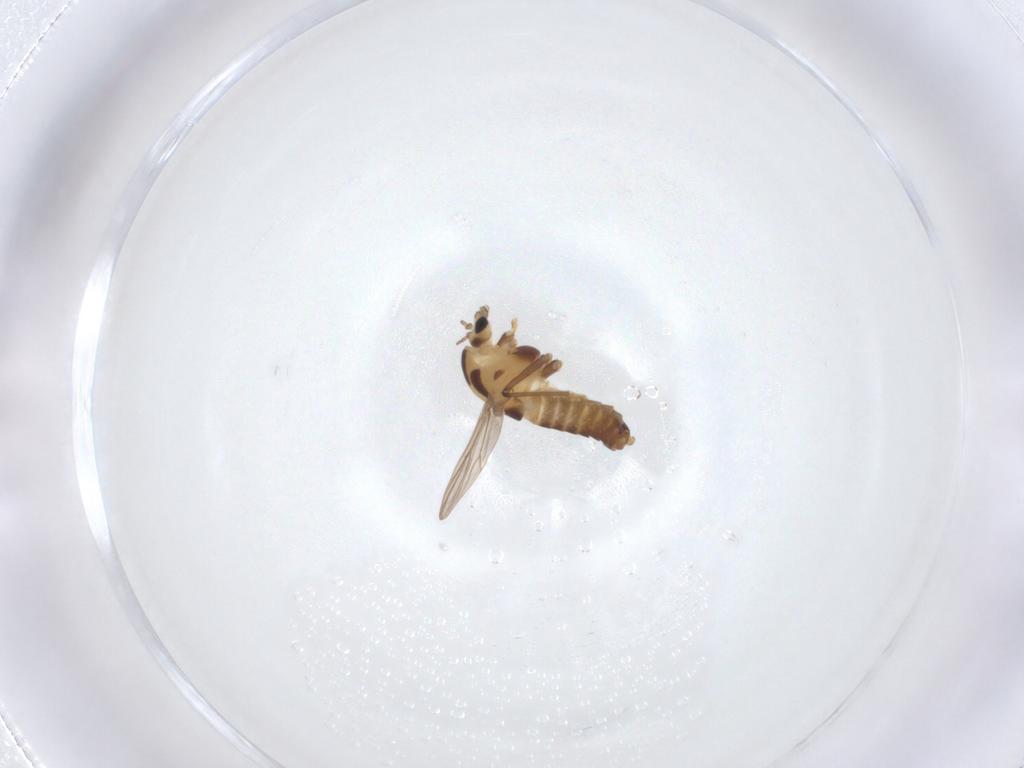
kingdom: Animalia
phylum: Arthropoda
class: Insecta
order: Diptera
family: Chironomidae
